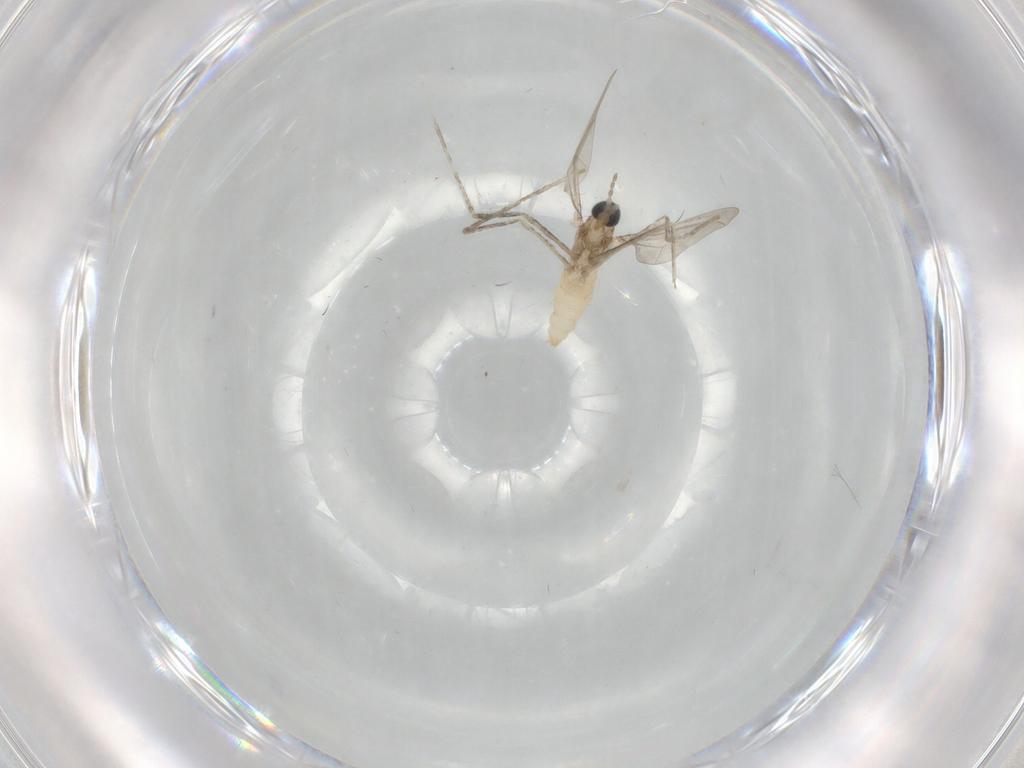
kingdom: Animalia
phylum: Arthropoda
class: Insecta
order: Diptera
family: Cecidomyiidae
